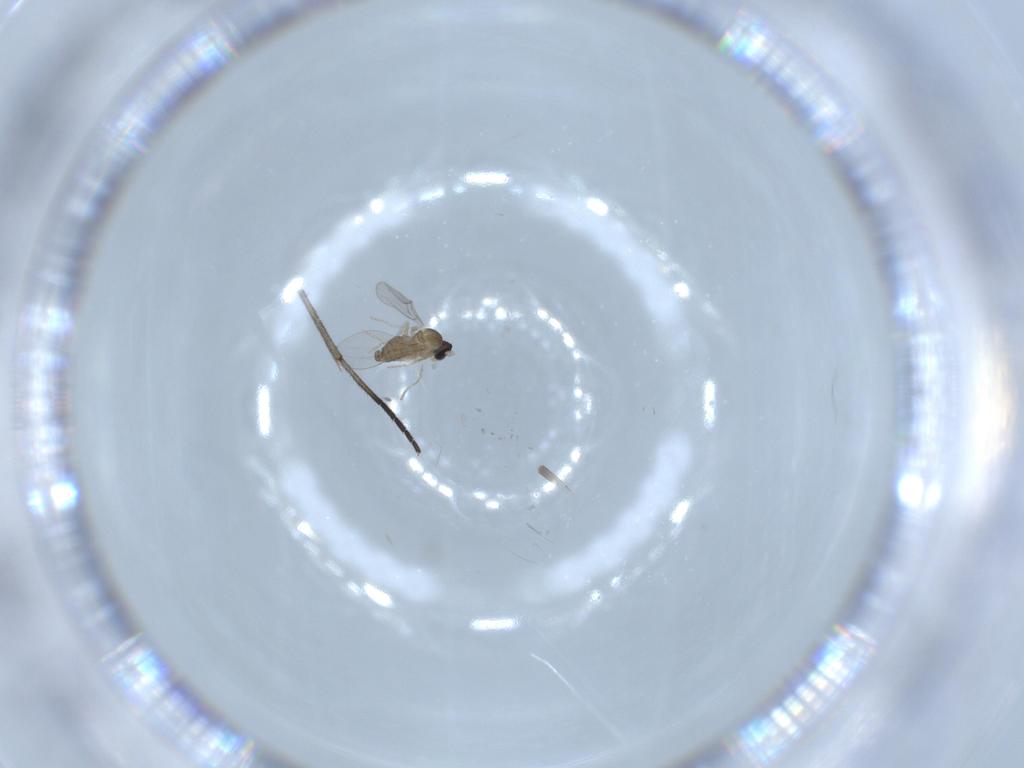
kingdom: Animalia
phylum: Arthropoda
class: Insecta
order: Diptera
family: Cecidomyiidae
